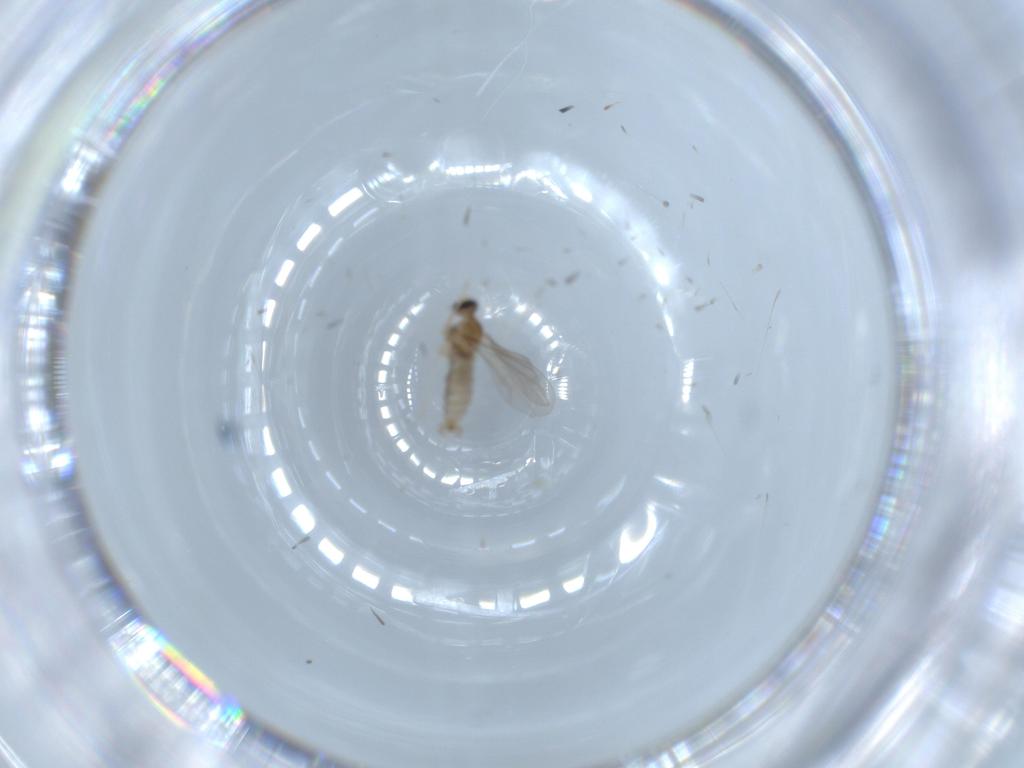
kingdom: Animalia
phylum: Arthropoda
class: Insecta
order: Diptera
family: Cecidomyiidae
